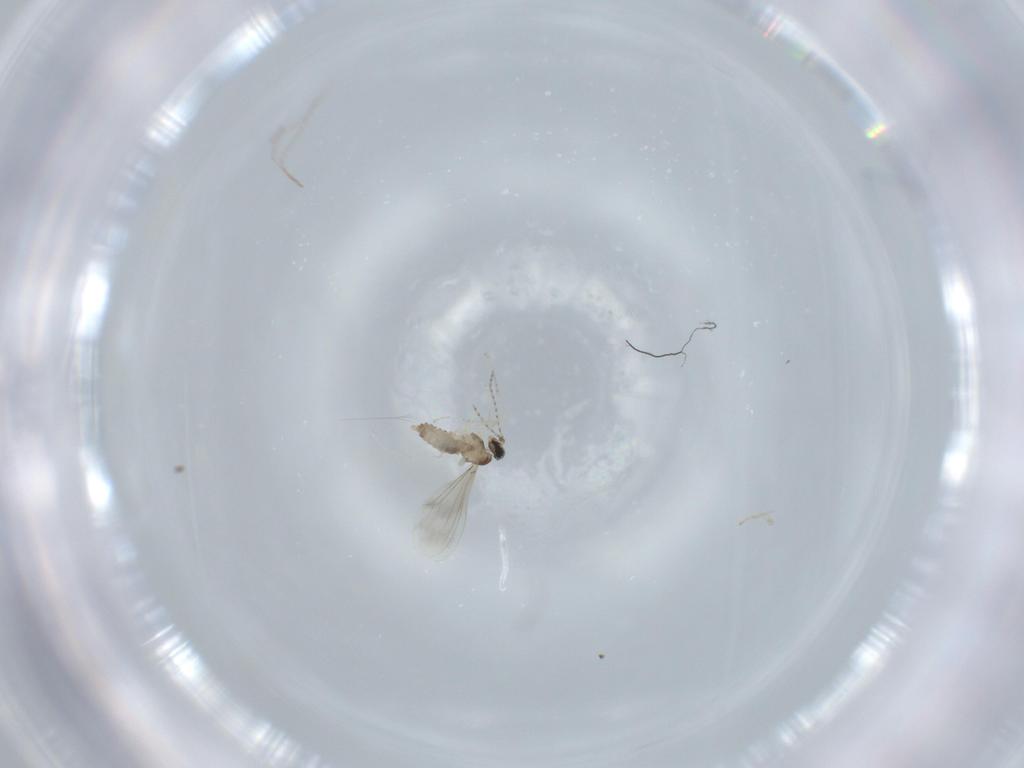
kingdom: Animalia
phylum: Arthropoda
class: Insecta
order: Diptera
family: Cecidomyiidae
